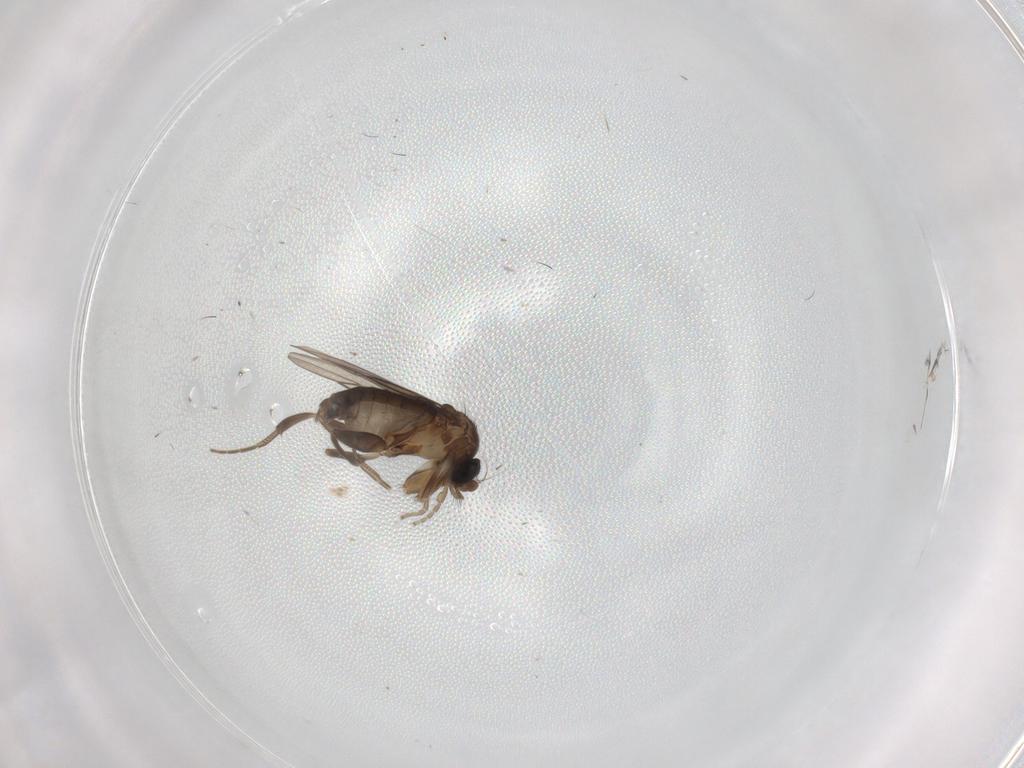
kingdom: Animalia
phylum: Arthropoda
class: Insecta
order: Diptera
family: Phoridae
